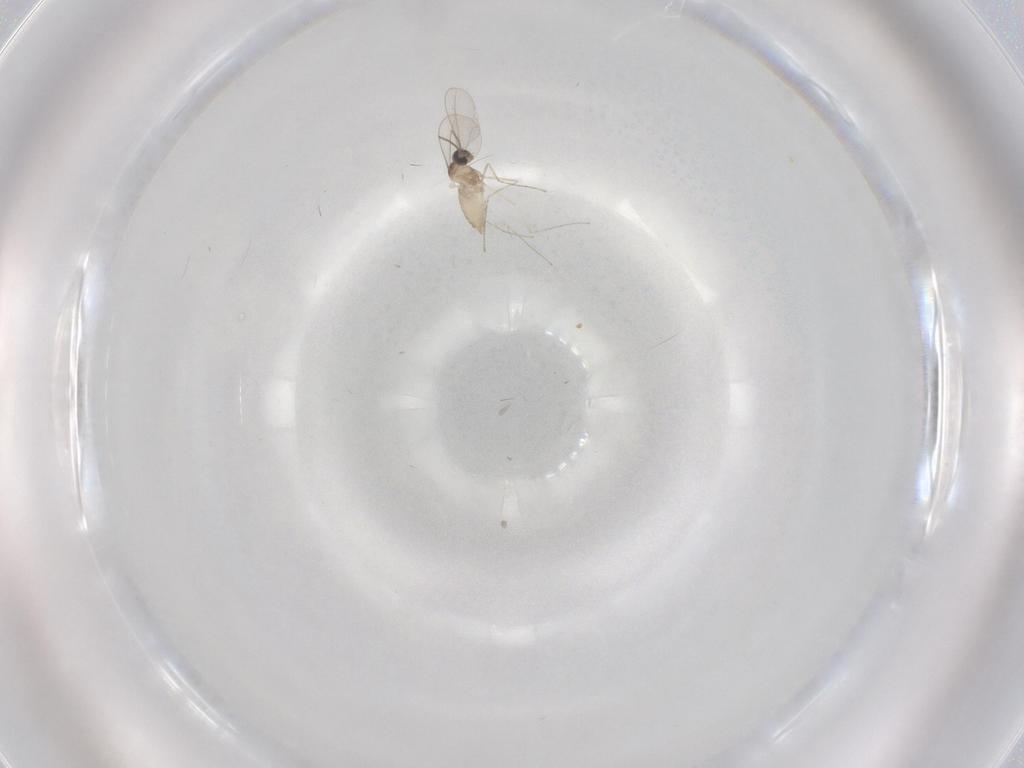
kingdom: Animalia
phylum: Arthropoda
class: Insecta
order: Diptera
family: Cecidomyiidae
